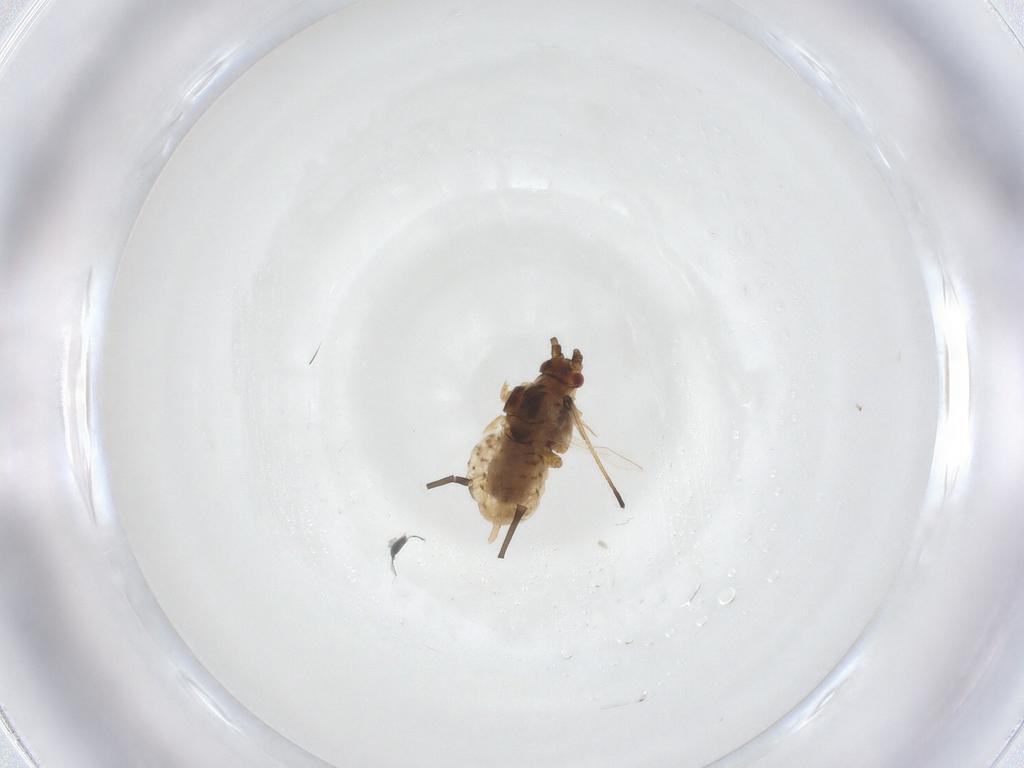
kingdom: Animalia
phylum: Arthropoda
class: Insecta
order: Hemiptera
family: Aphididae
